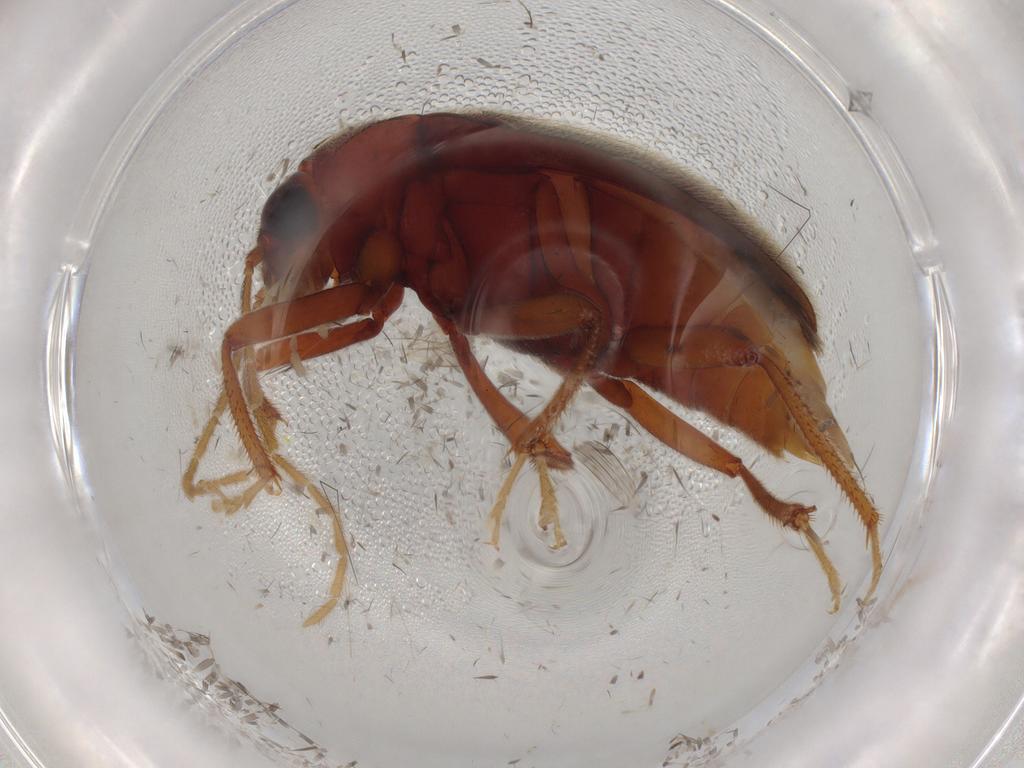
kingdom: Animalia
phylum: Arthropoda
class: Insecta
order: Coleoptera
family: Ptilodactylidae
